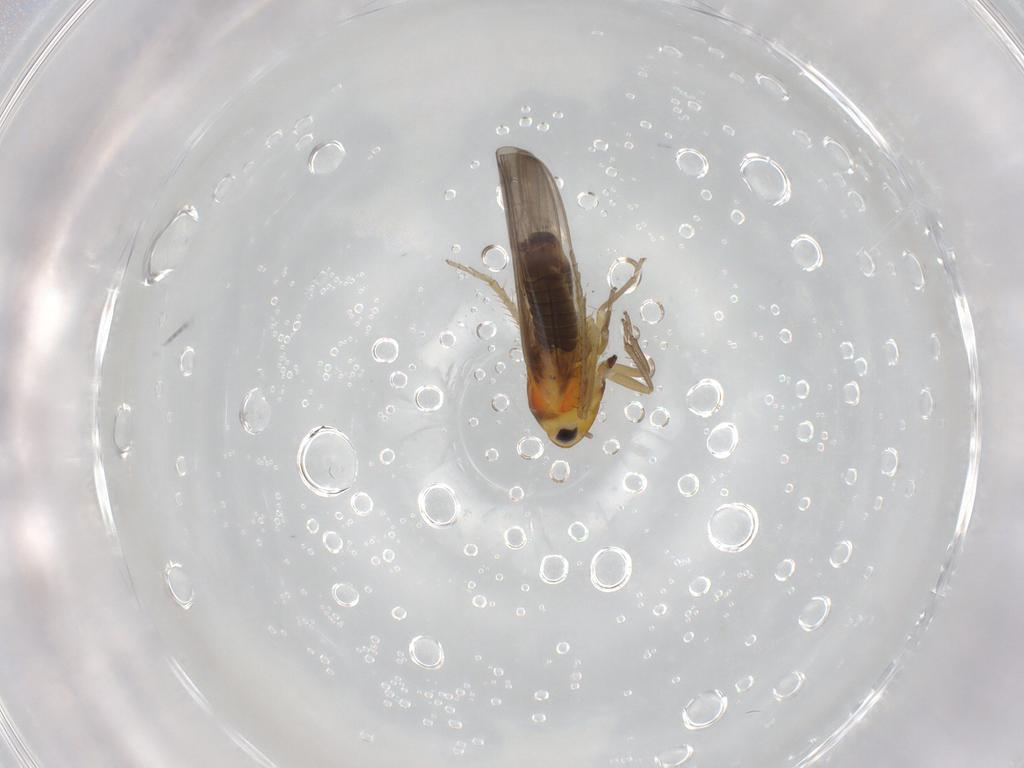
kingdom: Animalia
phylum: Arthropoda
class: Insecta
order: Hemiptera
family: Cicadellidae
